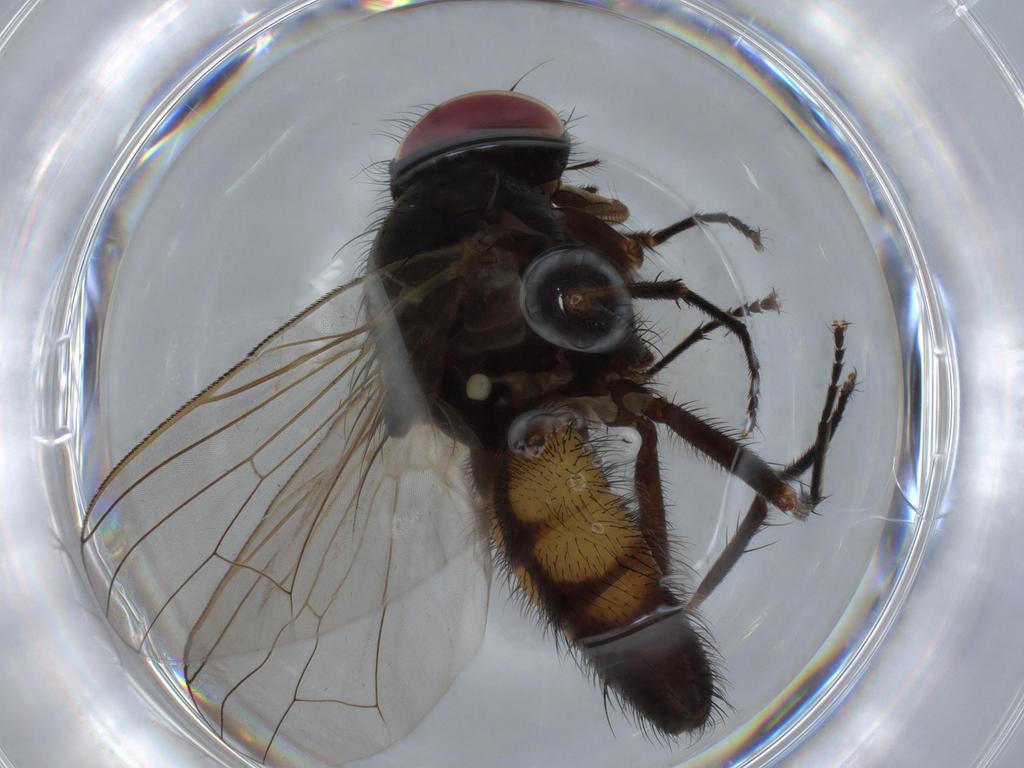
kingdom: Animalia
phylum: Arthropoda
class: Insecta
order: Diptera
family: Fannia
